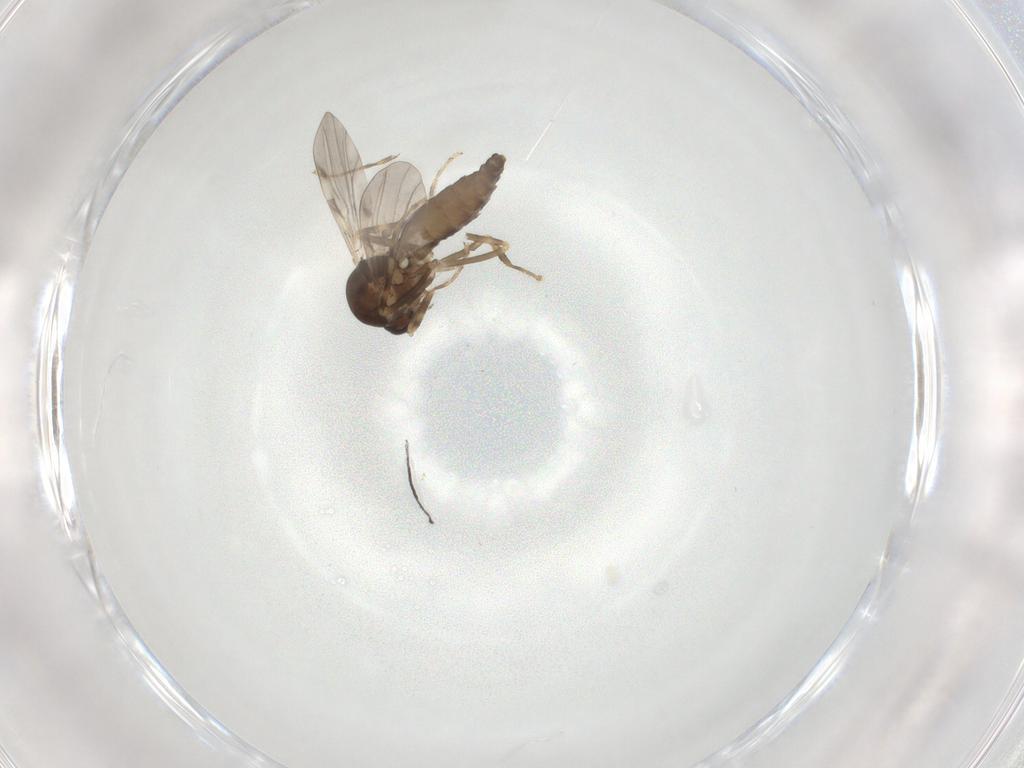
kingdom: Animalia
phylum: Arthropoda
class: Insecta
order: Diptera
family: Ceratopogonidae
